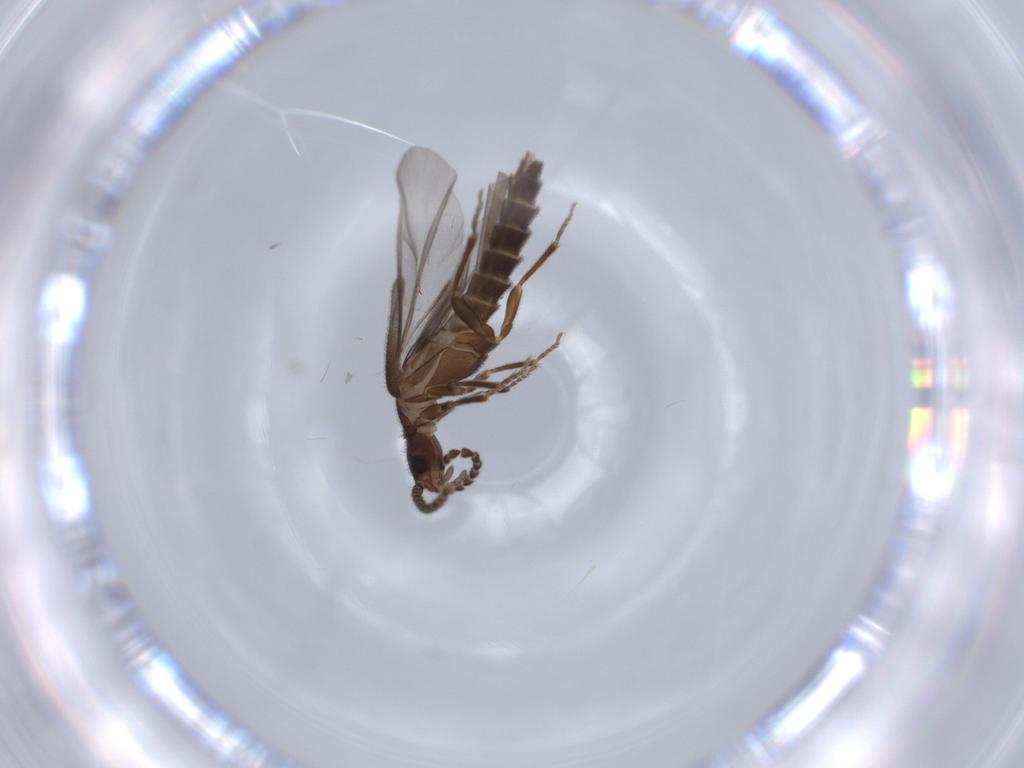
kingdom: Animalia
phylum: Arthropoda
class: Insecta
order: Coleoptera
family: Omethidae
